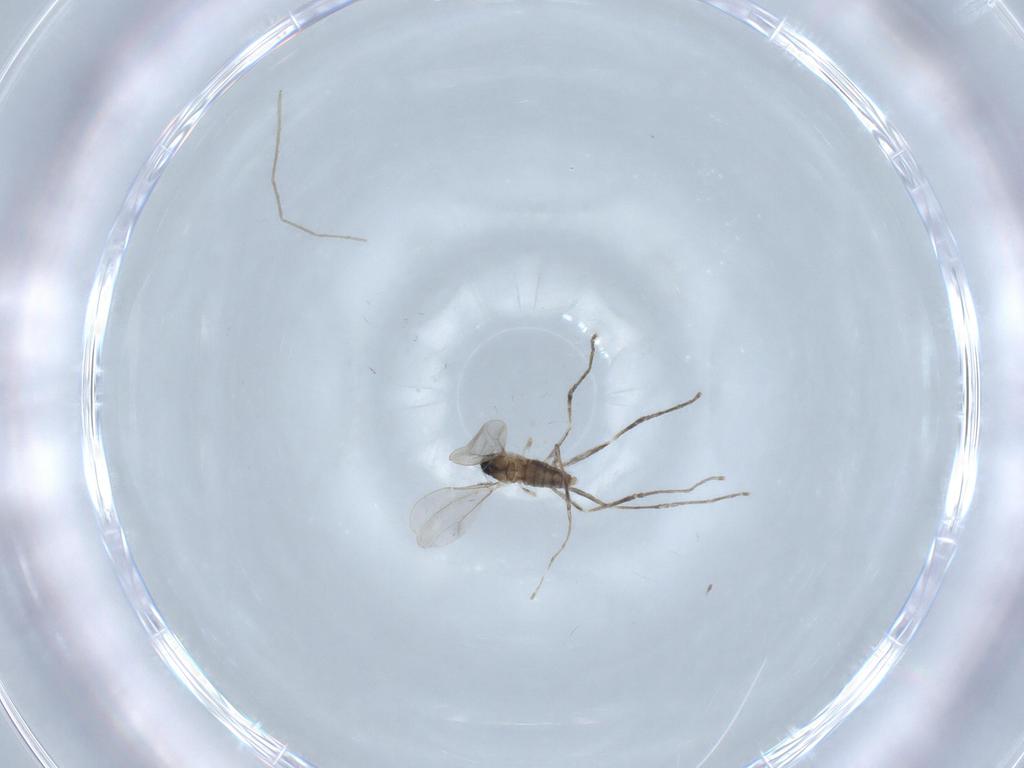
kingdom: Animalia
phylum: Arthropoda
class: Insecta
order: Diptera
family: Cecidomyiidae
